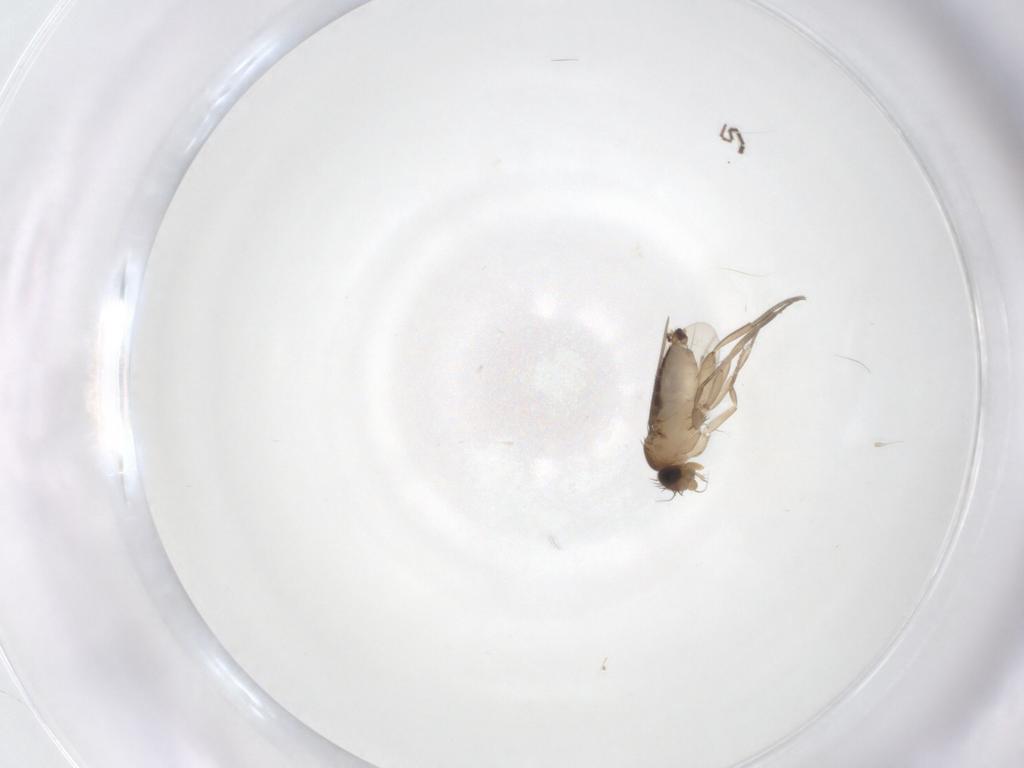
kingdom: Animalia
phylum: Arthropoda
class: Insecta
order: Diptera
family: Phoridae
